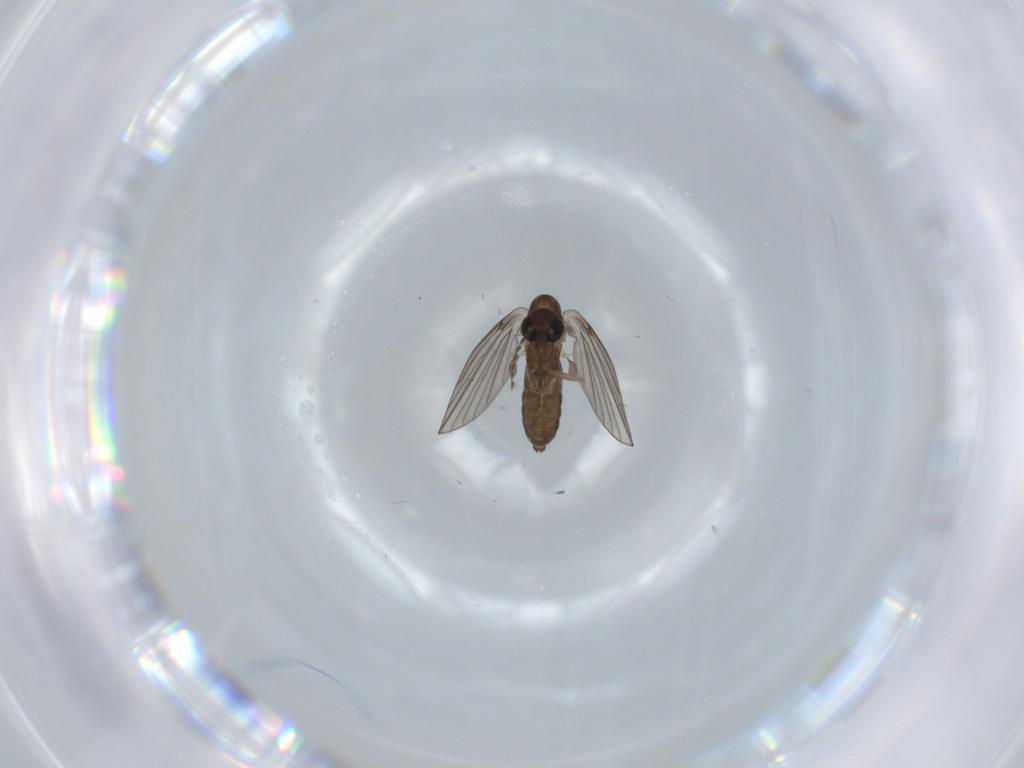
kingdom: Animalia
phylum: Arthropoda
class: Insecta
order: Diptera
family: Psychodidae
